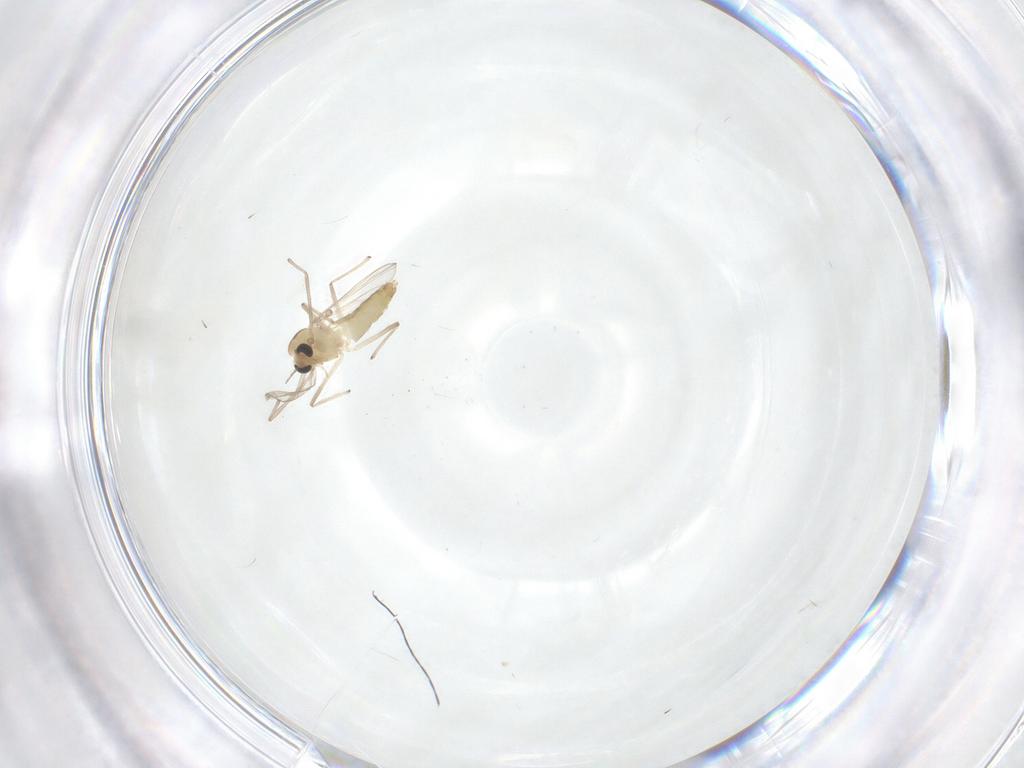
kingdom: Animalia
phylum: Arthropoda
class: Insecta
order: Diptera
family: Chironomidae
